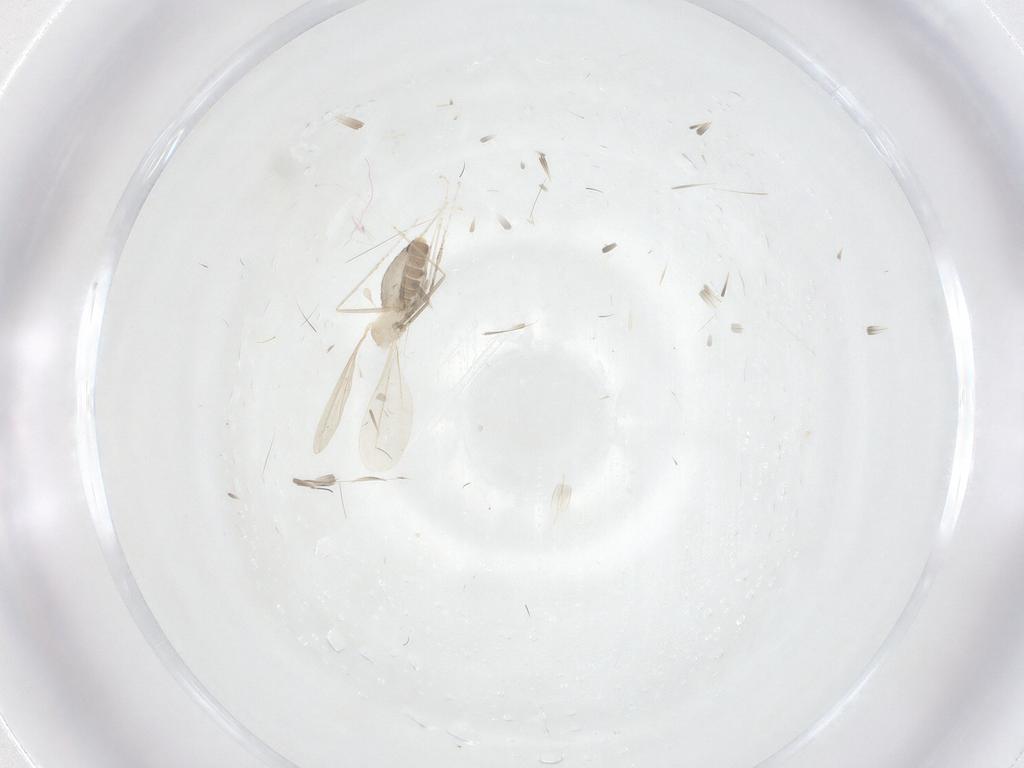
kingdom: Animalia
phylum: Arthropoda
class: Insecta
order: Diptera
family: Cecidomyiidae
